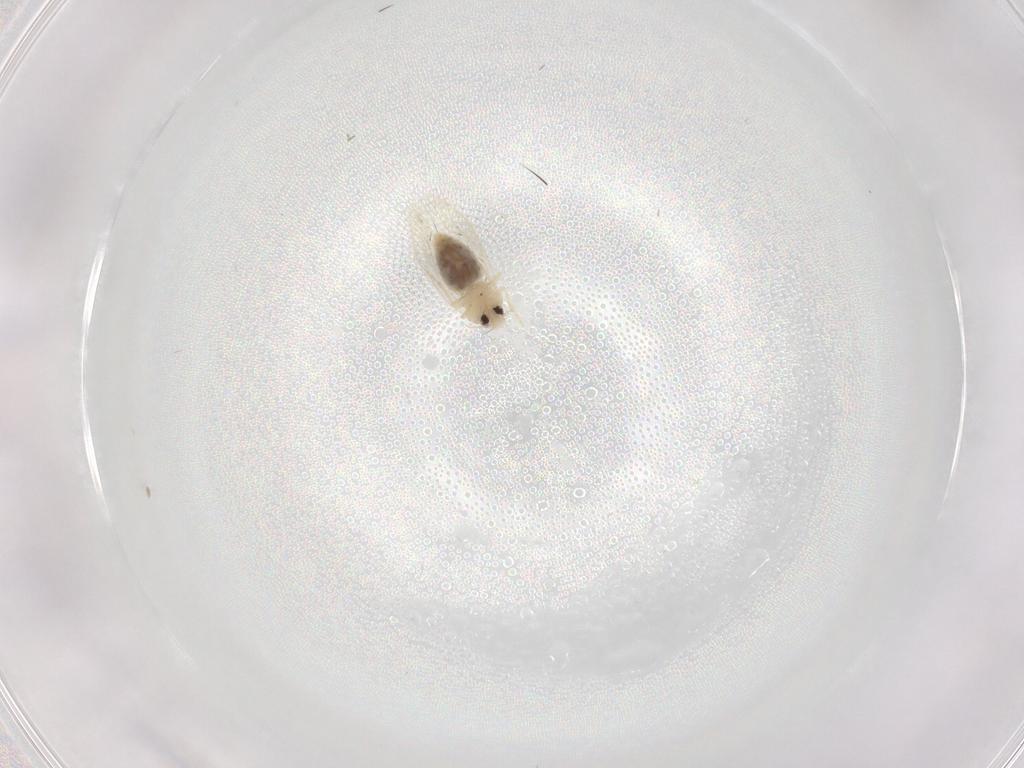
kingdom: Animalia
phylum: Arthropoda
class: Insecta
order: Hemiptera
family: Aleyrodidae
